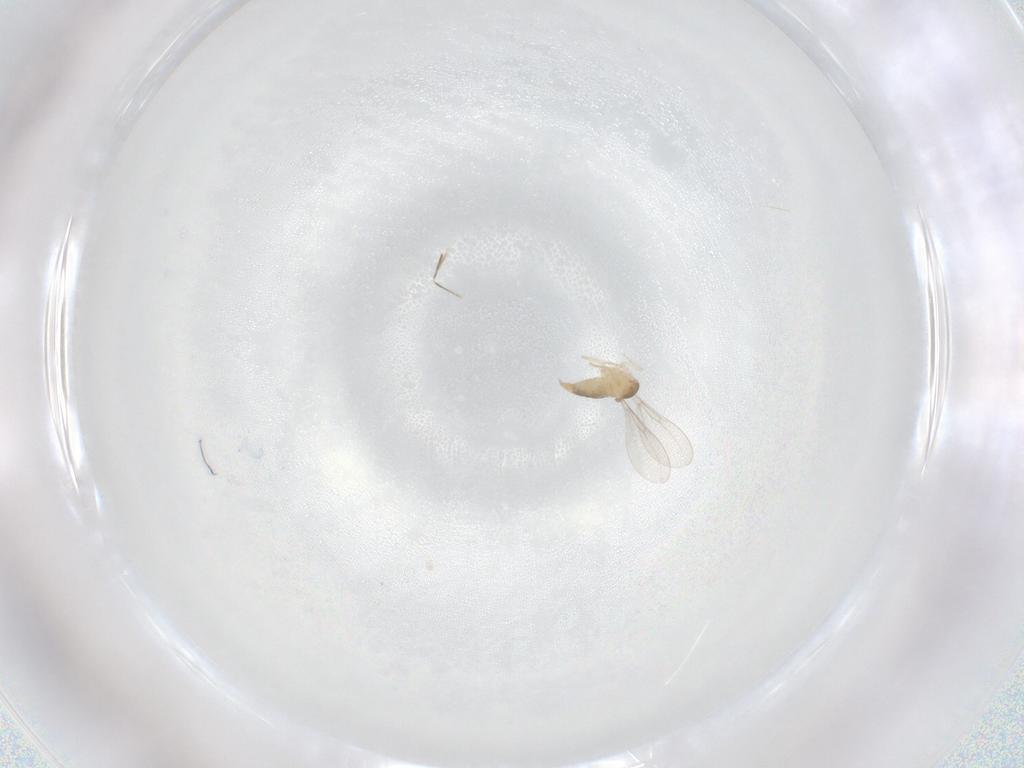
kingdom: Animalia
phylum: Arthropoda
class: Insecta
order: Diptera
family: Cecidomyiidae
